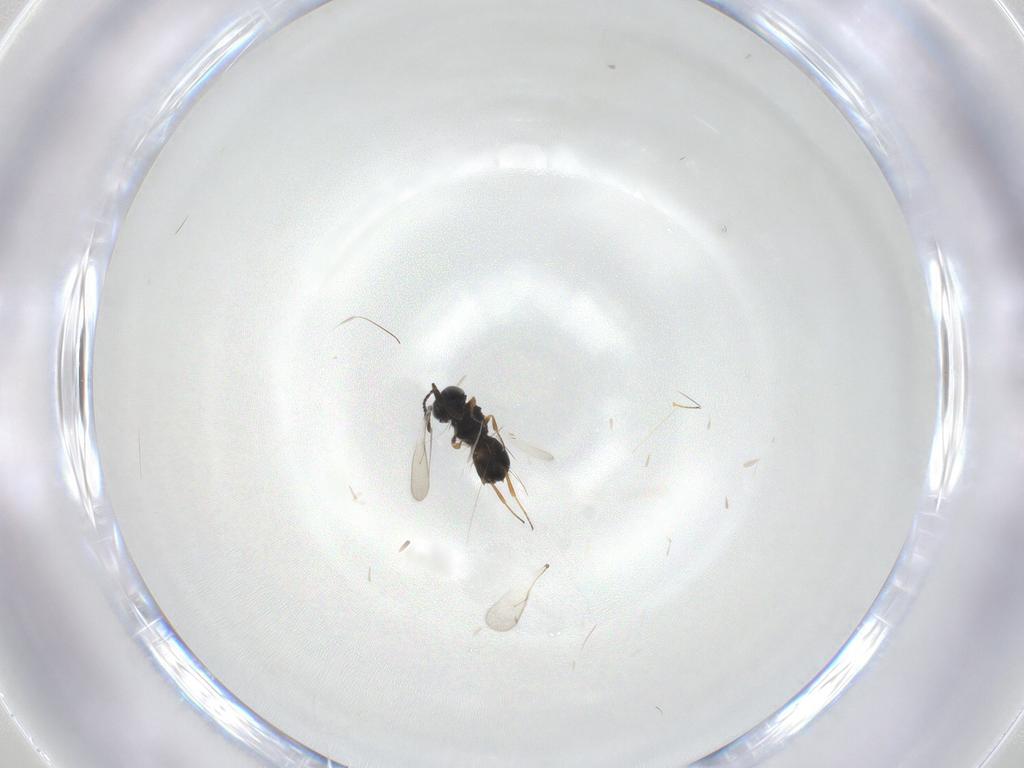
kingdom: Animalia
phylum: Arthropoda
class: Insecta
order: Hymenoptera
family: Scelionidae
